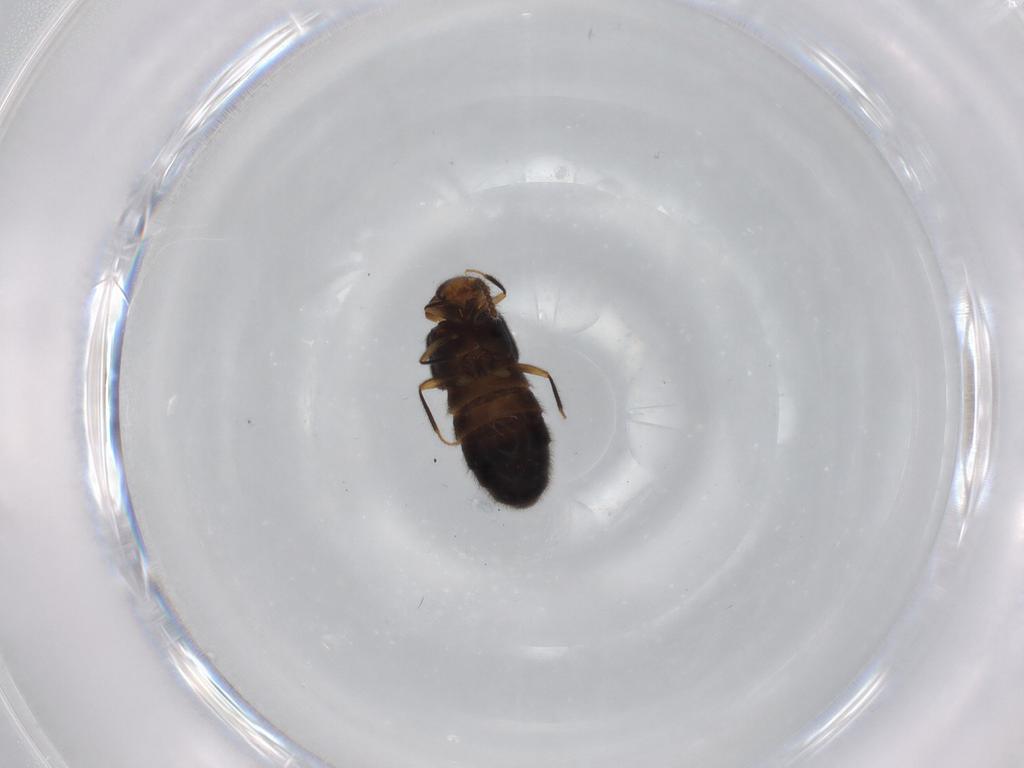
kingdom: Animalia
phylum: Arthropoda
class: Insecta
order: Coleoptera
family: Staphylinidae
